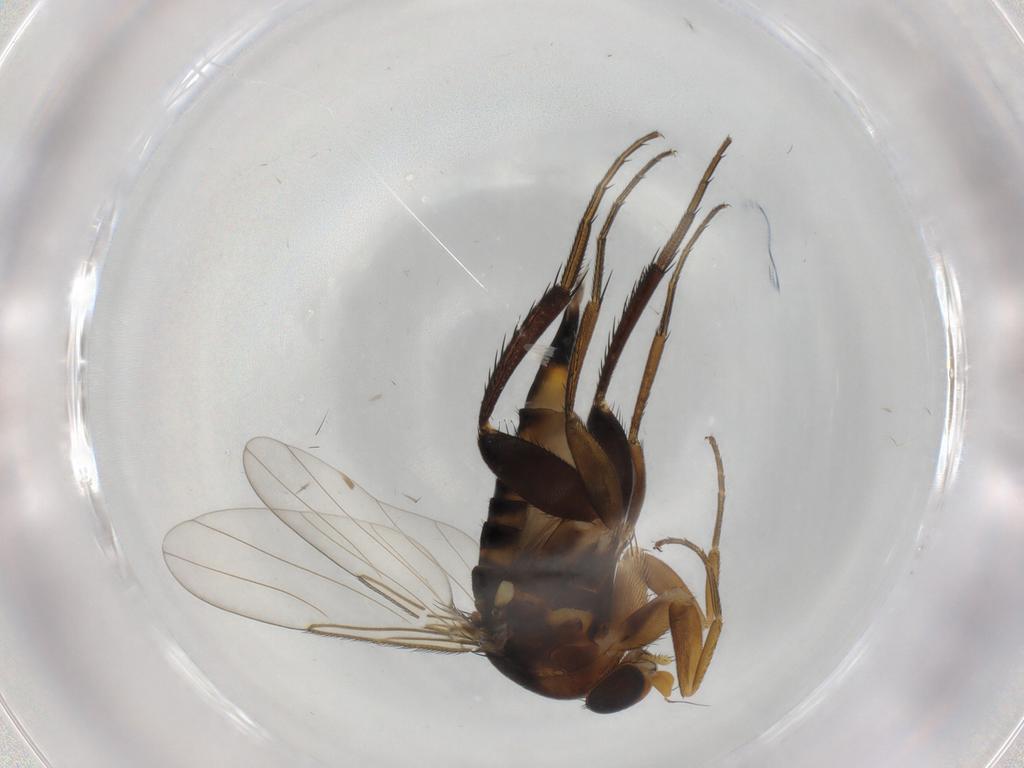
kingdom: Animalia
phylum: Arthropoda
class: Insecta
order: Diptera
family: Phoridae
